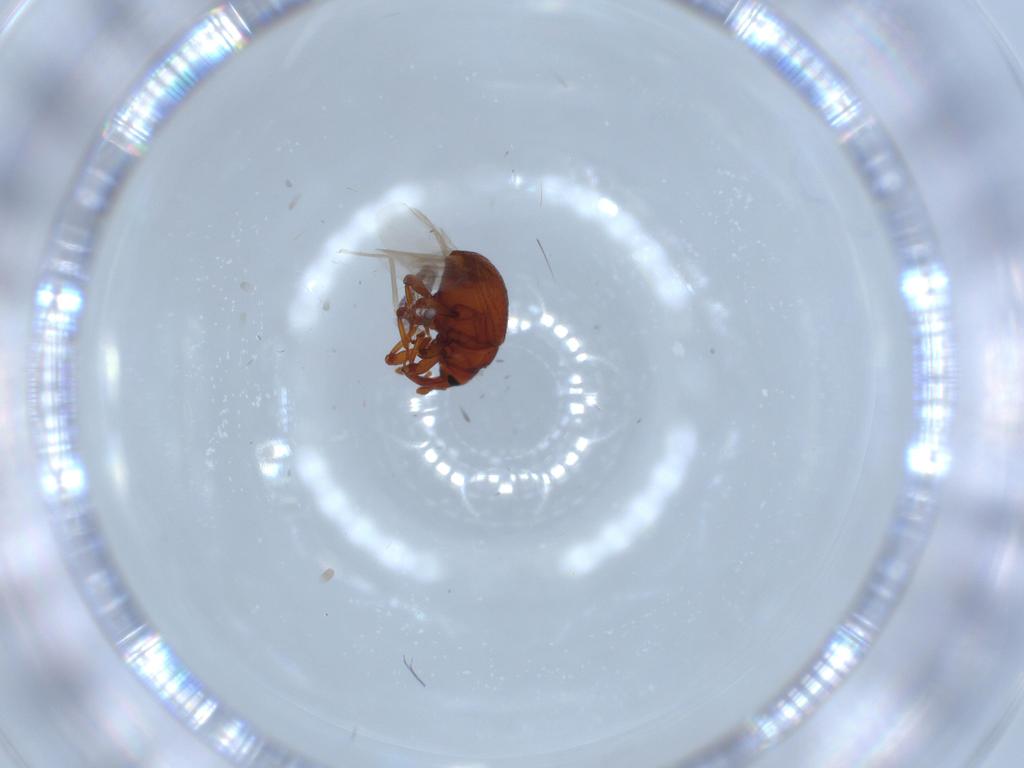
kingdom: Animalia
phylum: Arthropoda
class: Insecta
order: Coleoptera
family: Curculionidae
